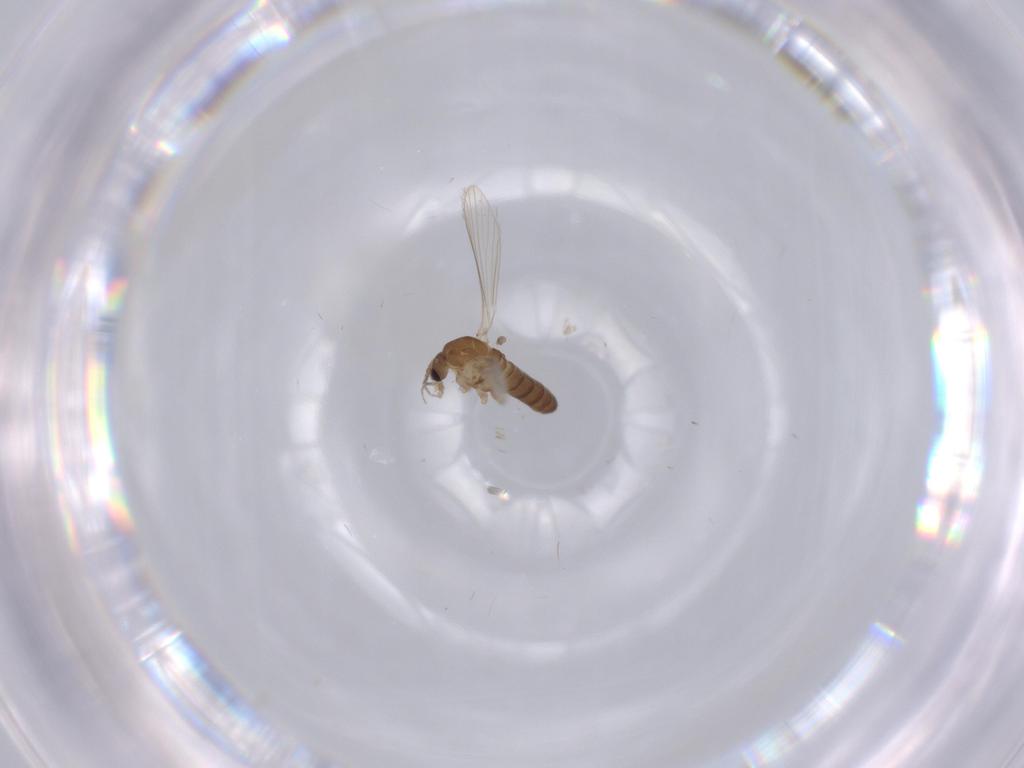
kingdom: Animalia
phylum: Arthropoda
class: Insecta
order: Diptera
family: Psychodidae
